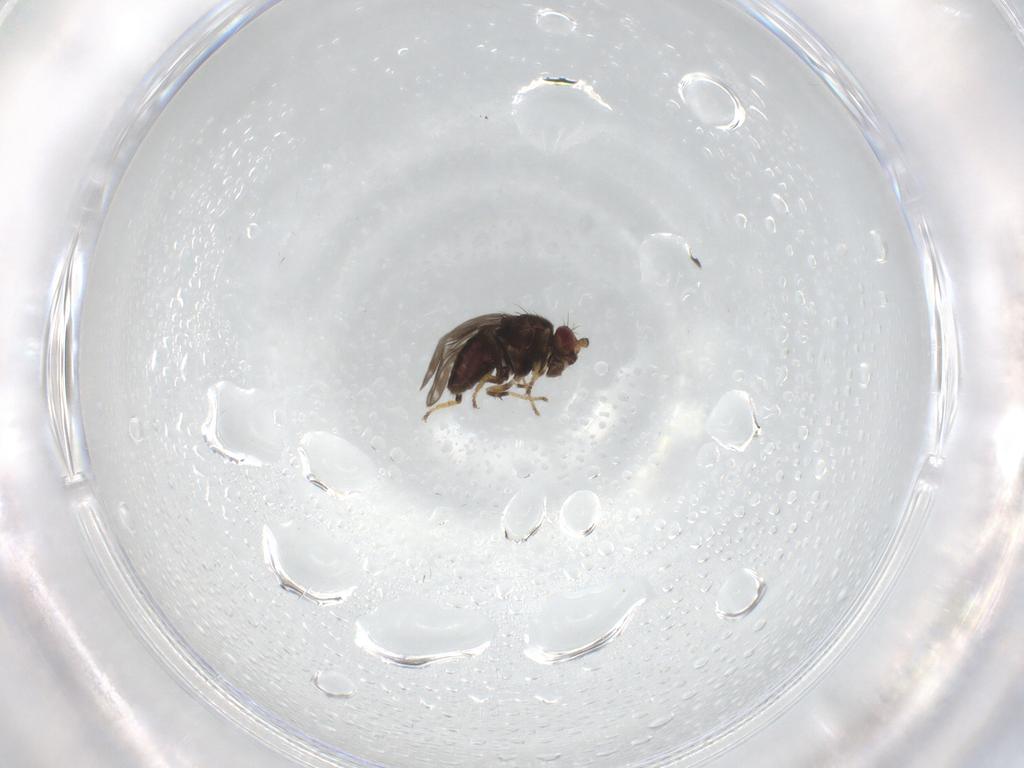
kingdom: Animalia
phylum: Arthropoda
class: Insecta
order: Diptera
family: Sphaeroceridae
